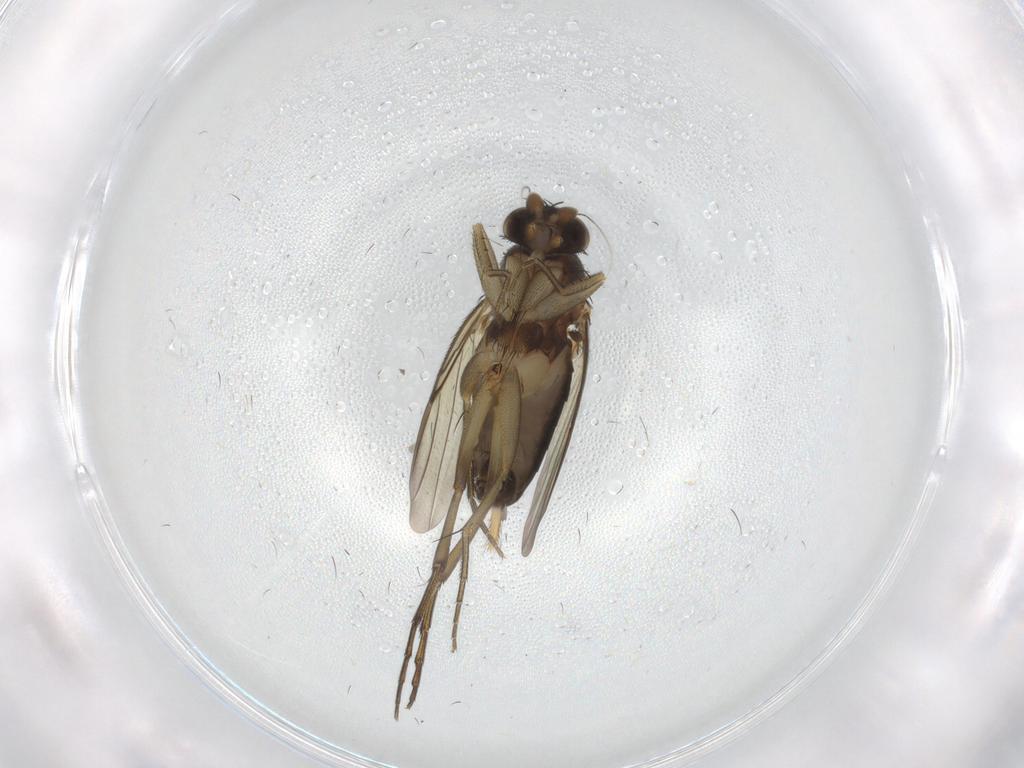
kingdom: Animalia
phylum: Arthropoda
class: Insecta
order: Diptera
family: Phoridae
